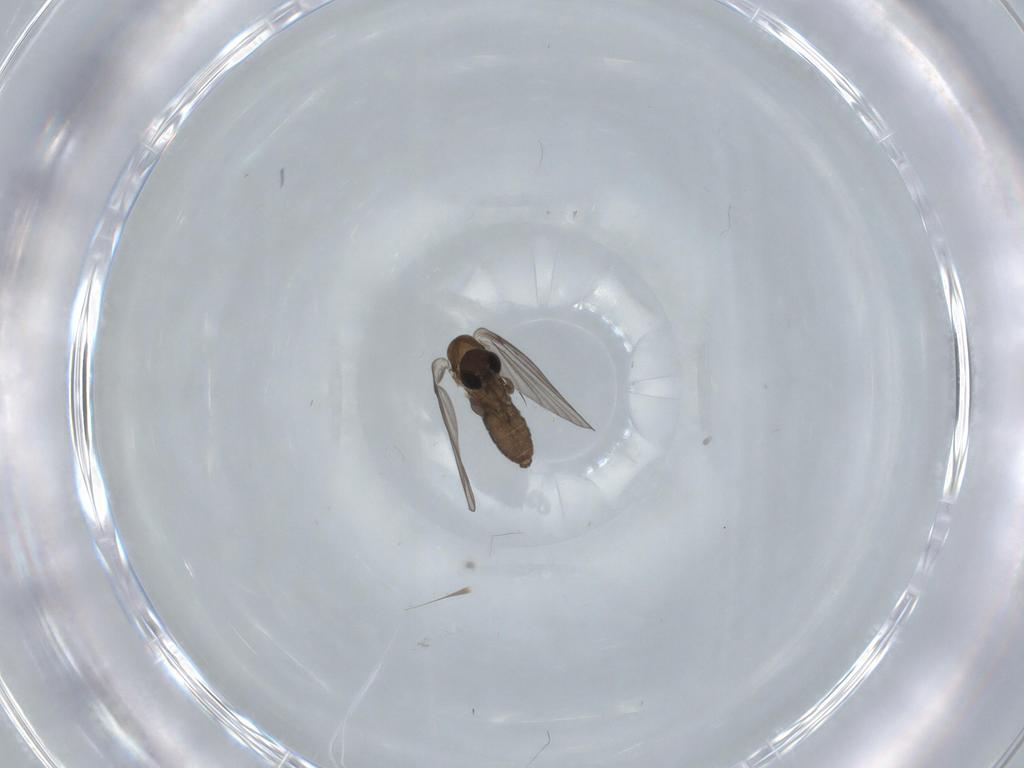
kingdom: Animalia
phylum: Arthropoda
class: Insecta
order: Diptera
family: Psychodidae
